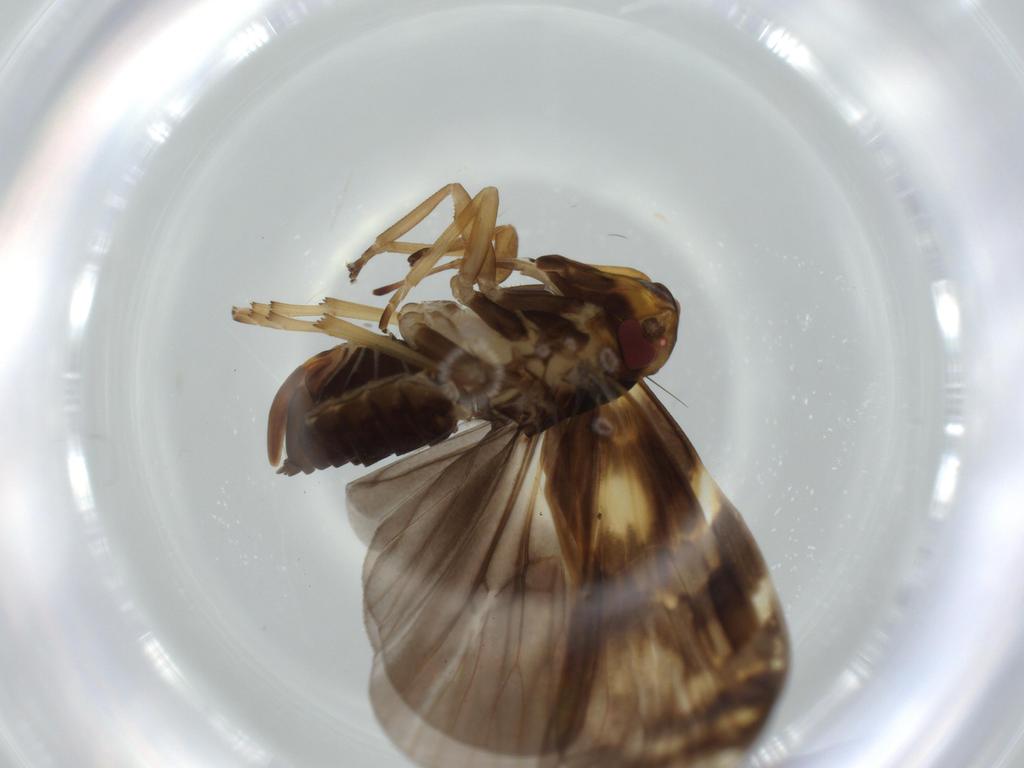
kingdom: Animalia
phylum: Arthropoda
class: Insecta
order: Hemiptera
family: Cixiidae
